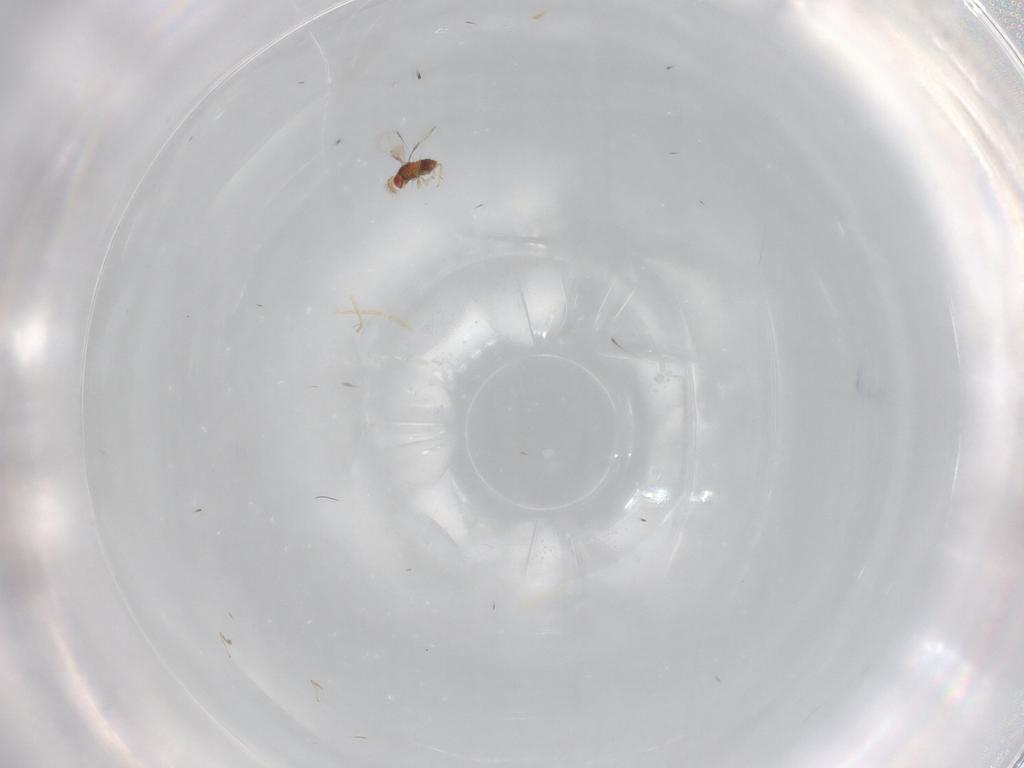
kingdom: Animalia
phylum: Arthropoda
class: Insecta
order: Hymenoptera
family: Trichogrammatidae
